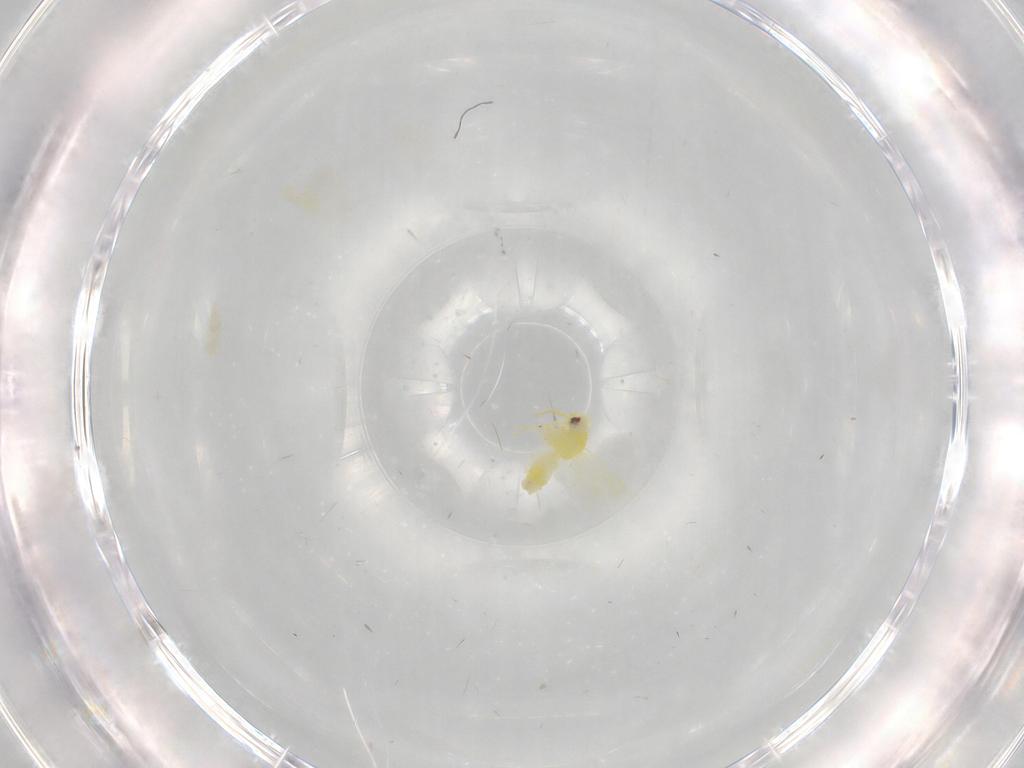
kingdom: Animalia
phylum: Arthropoda
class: Insecta
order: Hemiptera
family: Aleyrodidae
